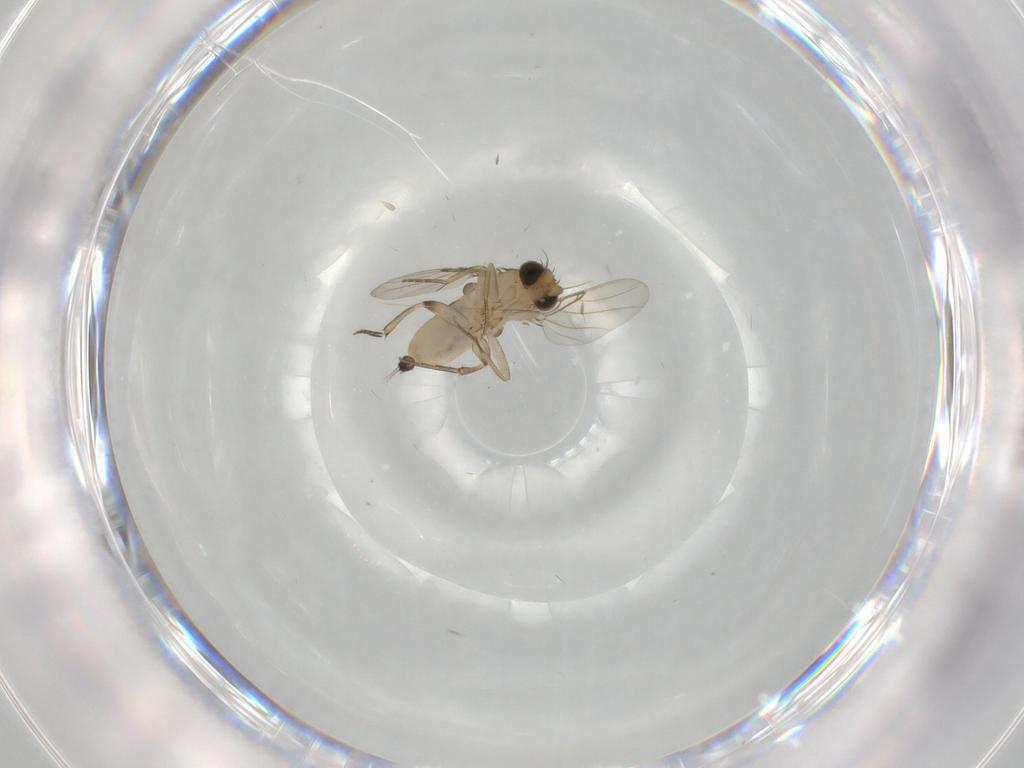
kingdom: Animalia
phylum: Arthropoda
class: Insecta
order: Diptera
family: Phoridae
